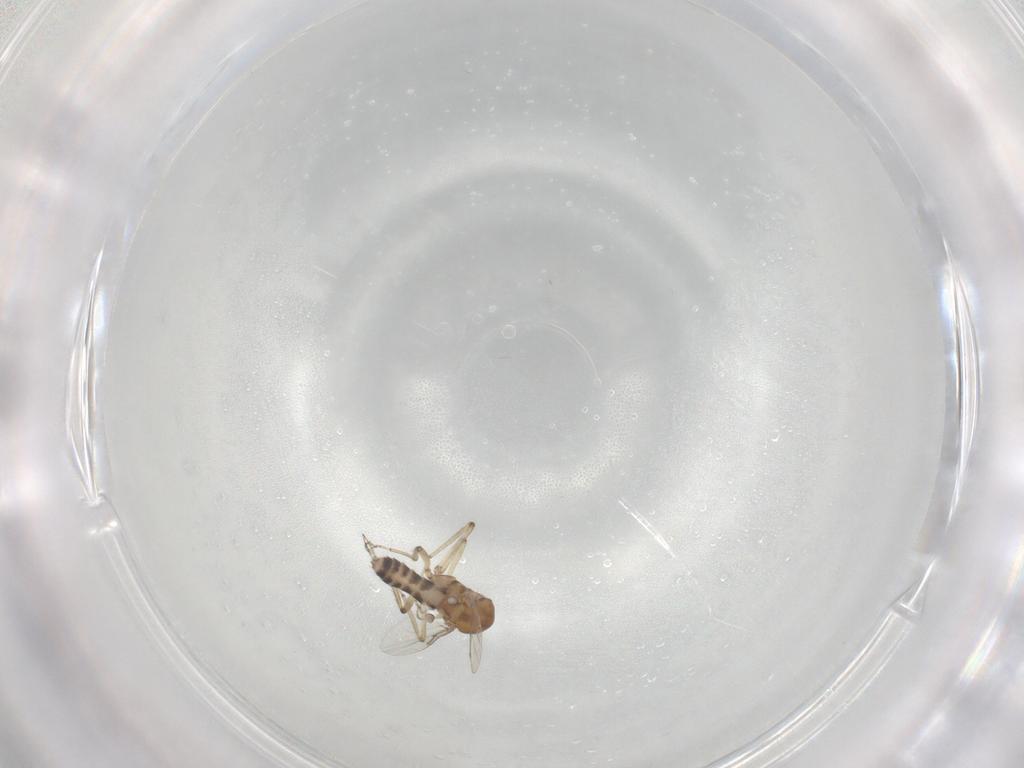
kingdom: Animalia
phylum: Arthropoda
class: Insecta
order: Diptera
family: Ceratopogonidae
